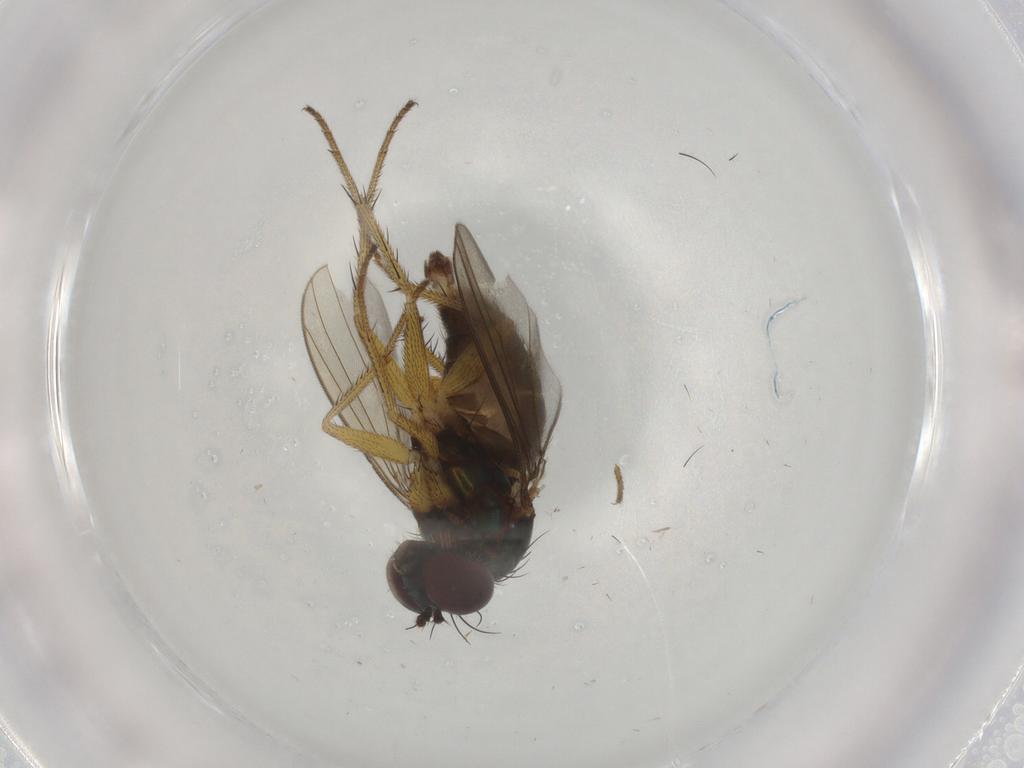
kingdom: Animalia
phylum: Arthropoda
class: Insecta
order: Diptera
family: Dolichopodidae
